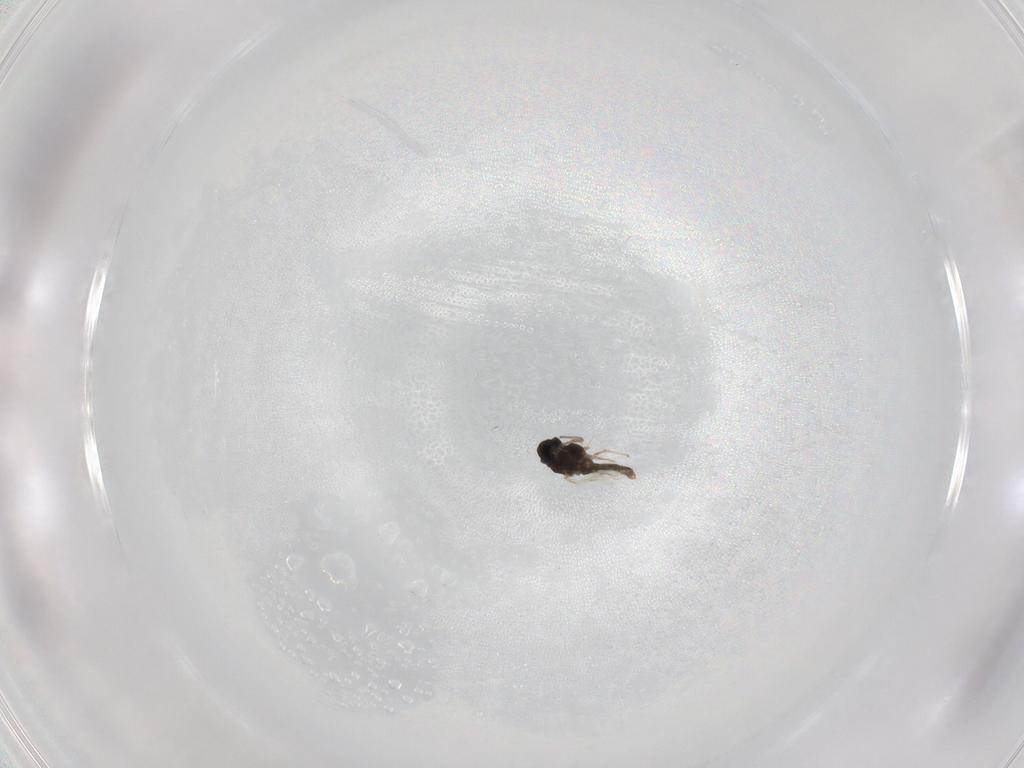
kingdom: Animalia
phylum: Arthropoda
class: Insecta
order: Diptera
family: Chironomidae
